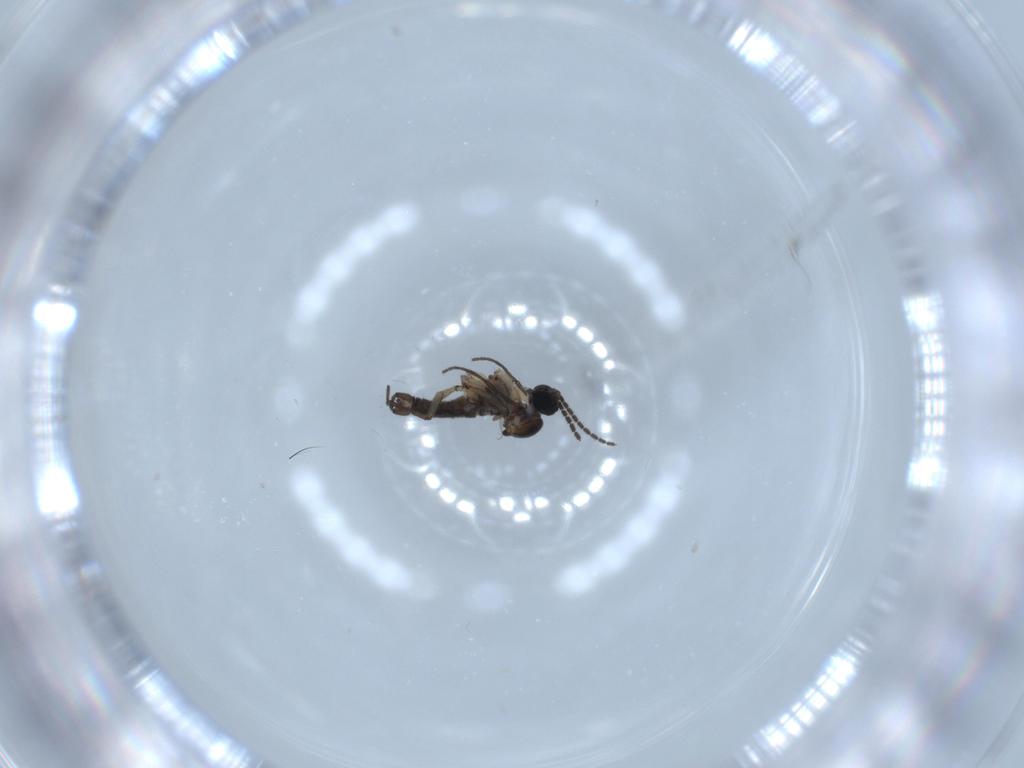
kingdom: Animalia
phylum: Arthropoda
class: Insecta
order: Diptera
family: Sciaridae
